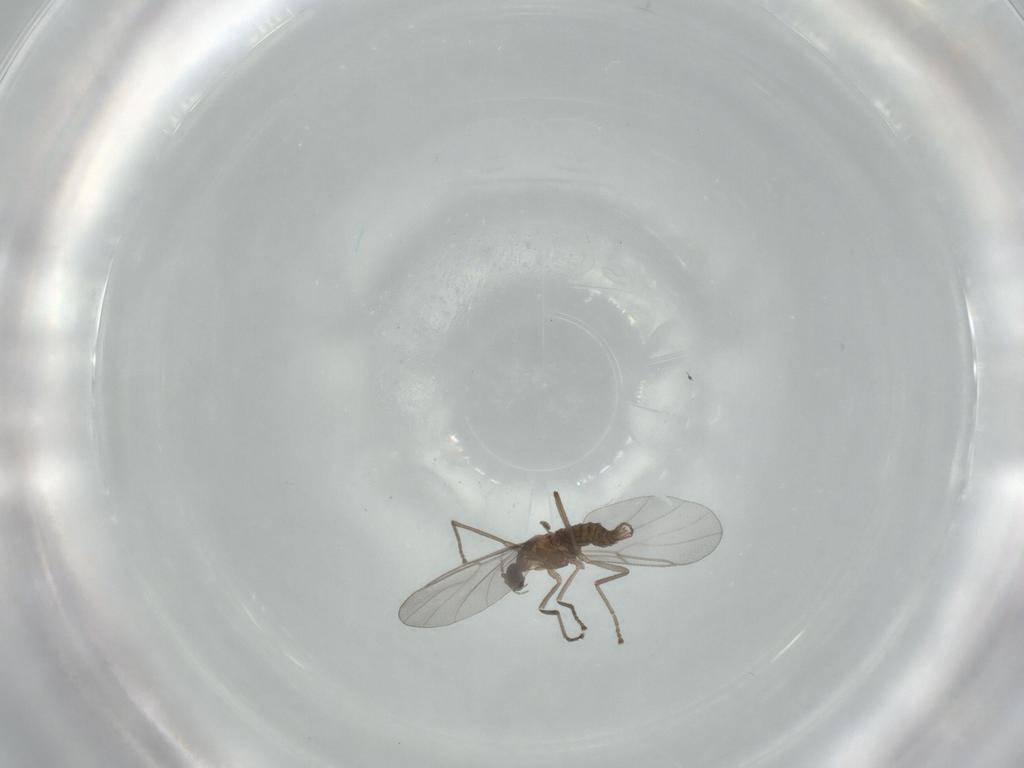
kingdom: Animalia
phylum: Arthropoda
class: Insecta
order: Diptera
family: Cecidomyiidae
